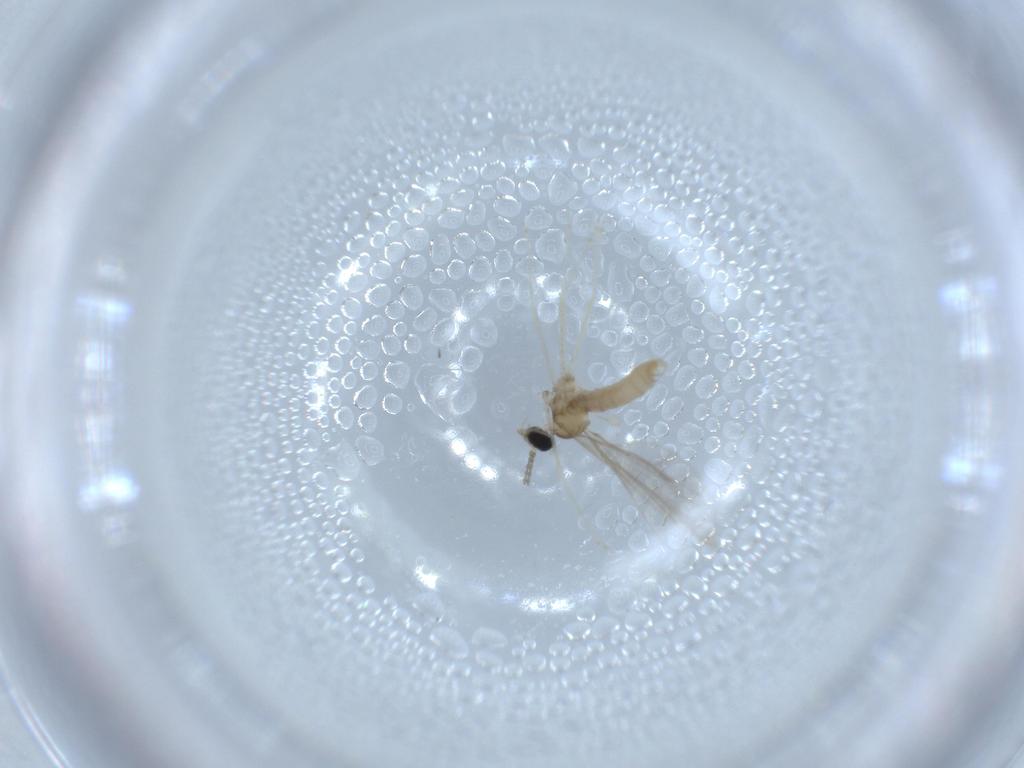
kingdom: Animalia
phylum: Arthropoda
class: Insecta
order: Diptera
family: Cecidomyiidae
